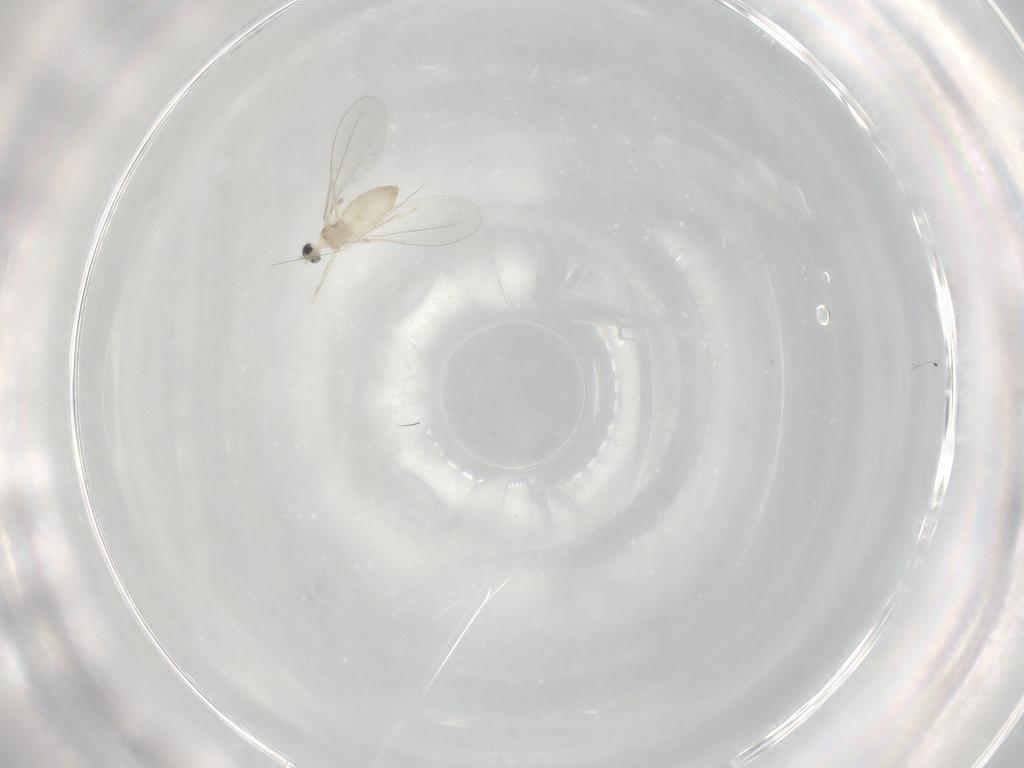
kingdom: Animalia
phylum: Arthropoda
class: Insecta
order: Diptera
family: Cecidomyiidae
